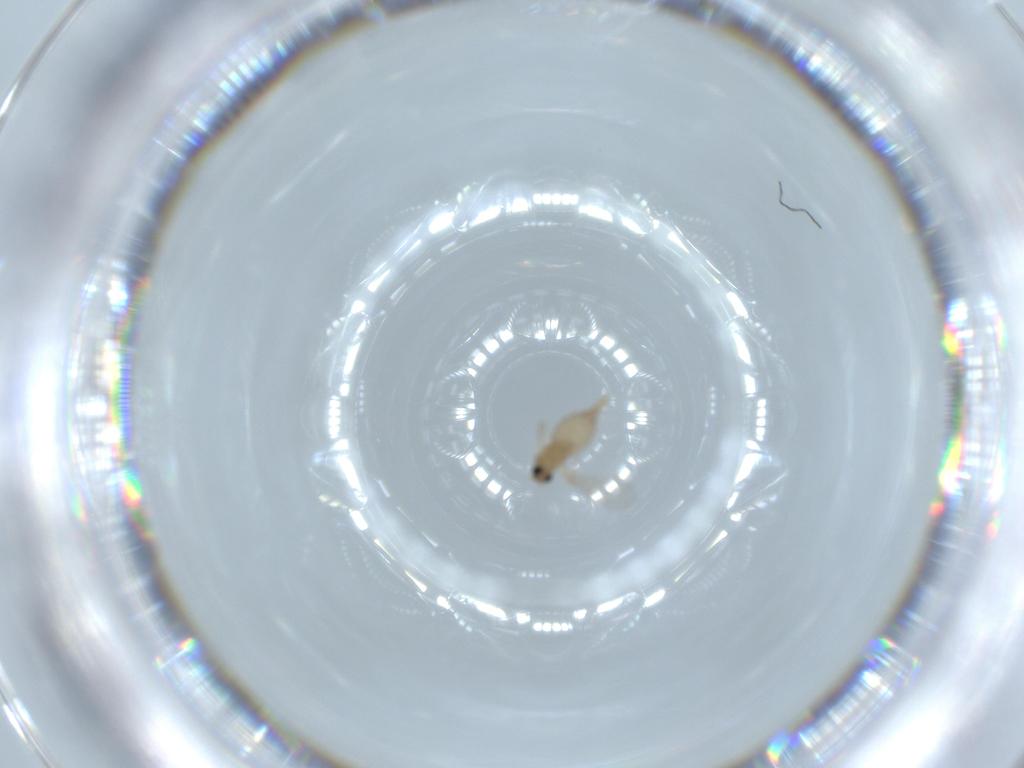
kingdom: Animalia
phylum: Arthropoda
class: Insecta
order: Diptera
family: Cecidomyiidae
